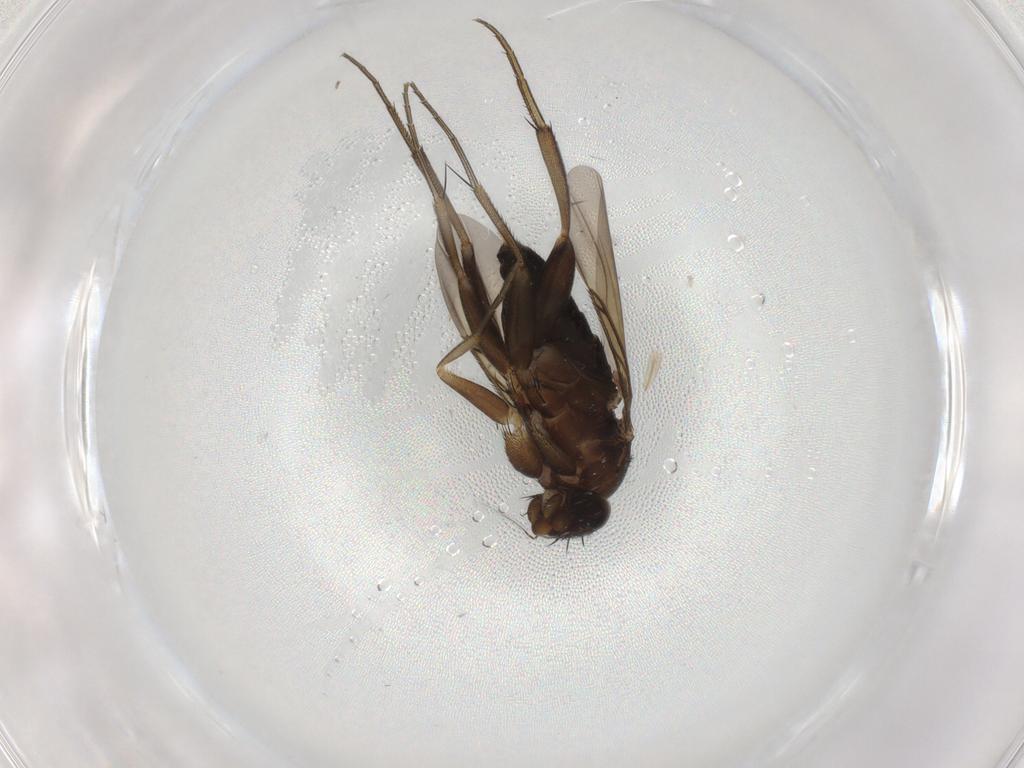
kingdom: Animalia
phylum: Arthropoda
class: Insecta
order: Diptera
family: Phoridae
